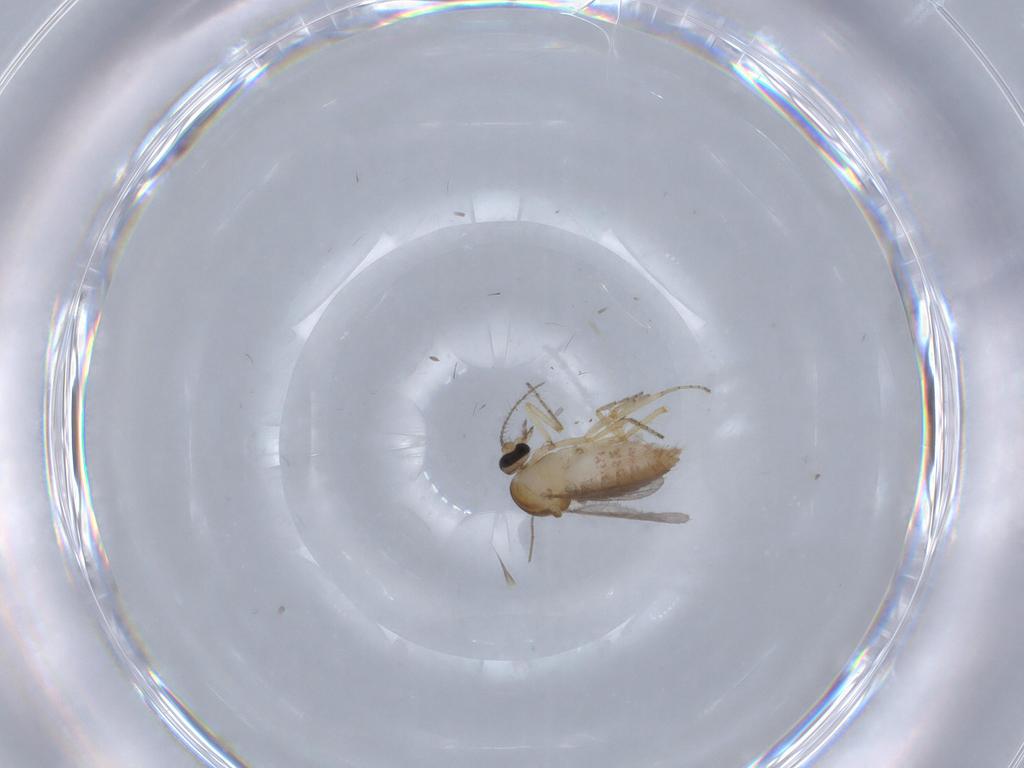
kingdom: Animalia
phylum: Arthropoda
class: Insecta
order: Diptera
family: Ceratopogonidae
